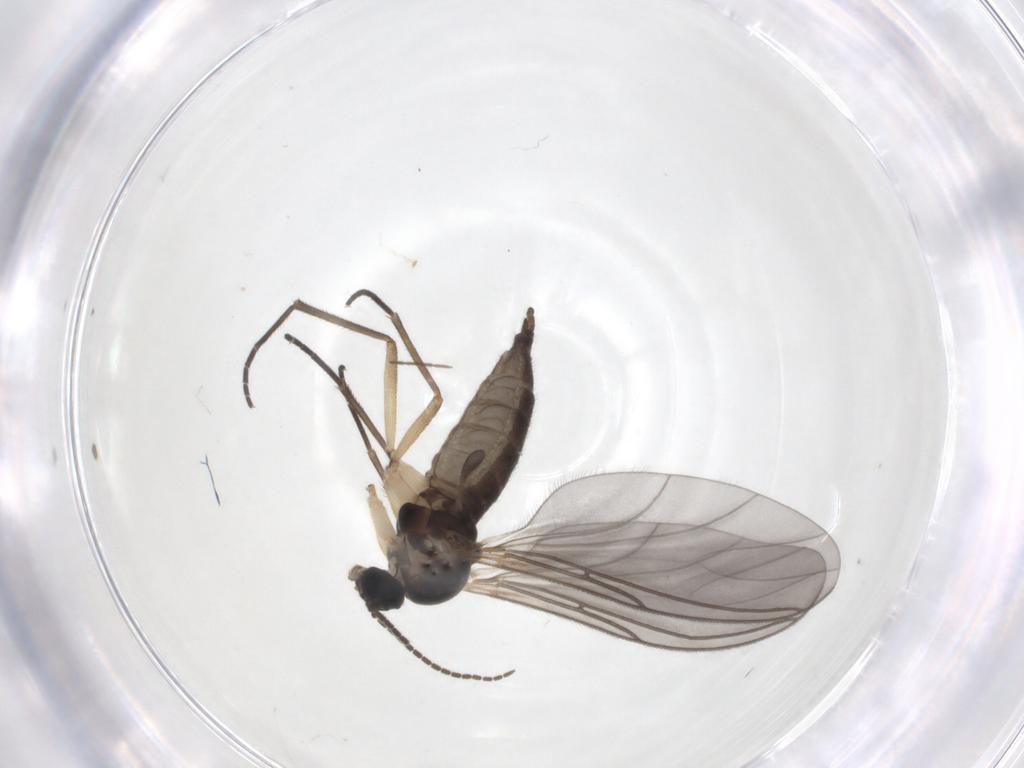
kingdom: Animalia
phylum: Arthropoda
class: Insecta
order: Diptera
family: Sciaridae
